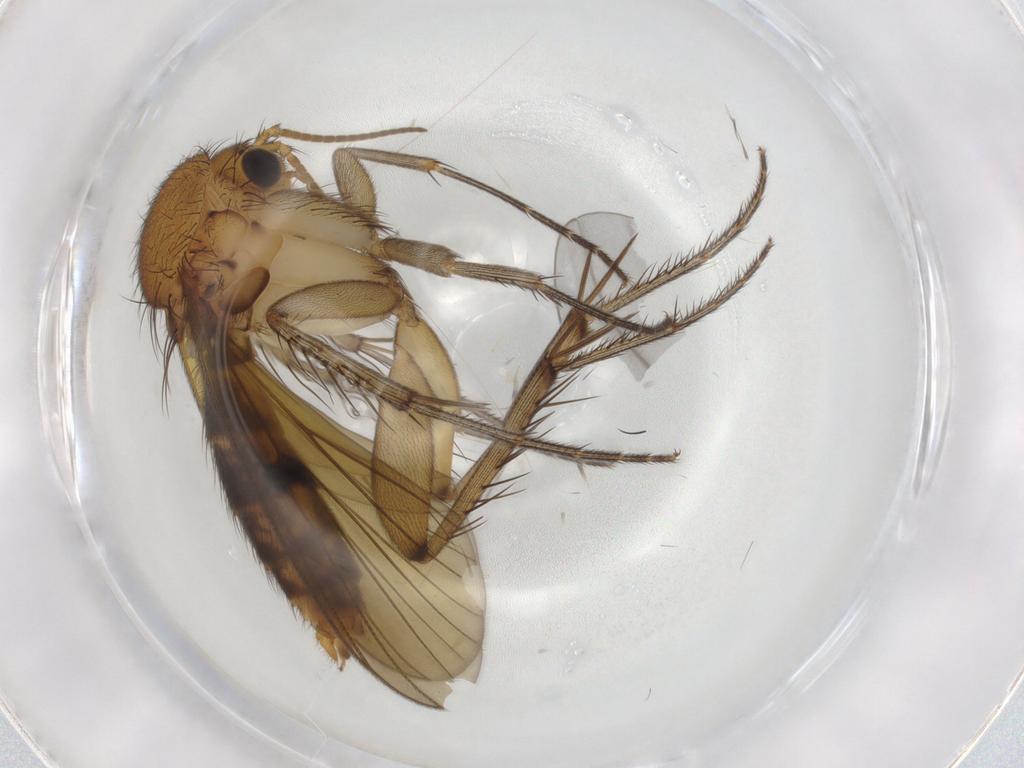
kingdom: Animalia
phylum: Arthropoda
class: Insecta
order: Diptera
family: Mycetophilidae
